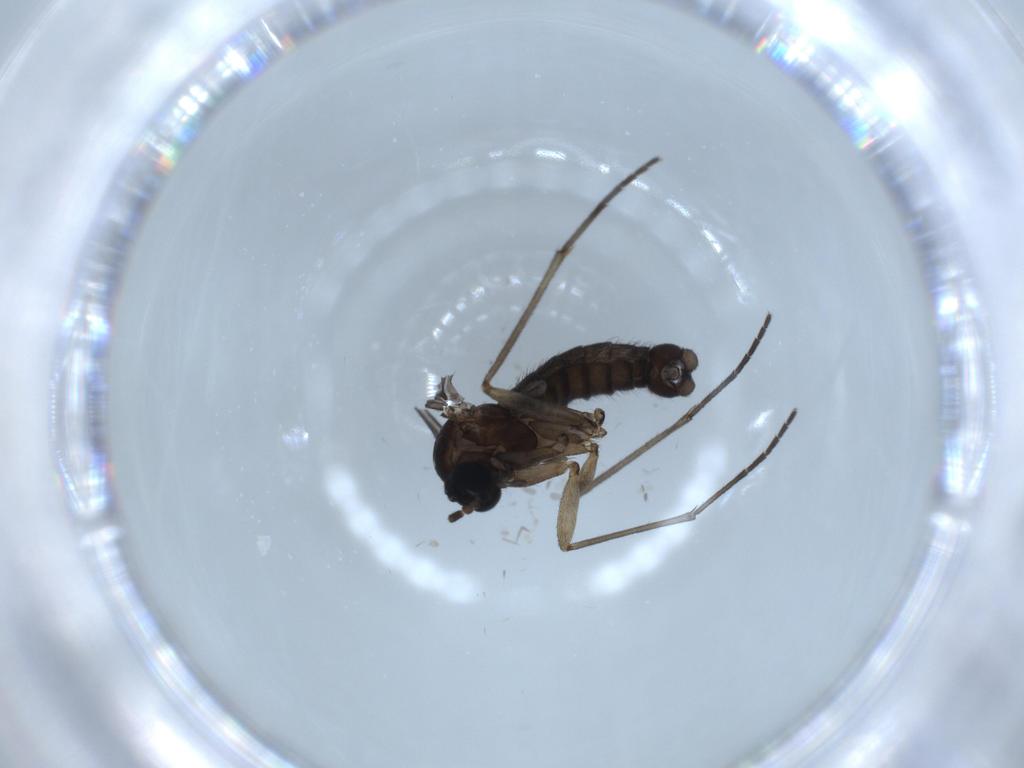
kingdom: Animalia
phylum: Arthropoda
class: Insecta
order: Diptera
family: Sciaridae
